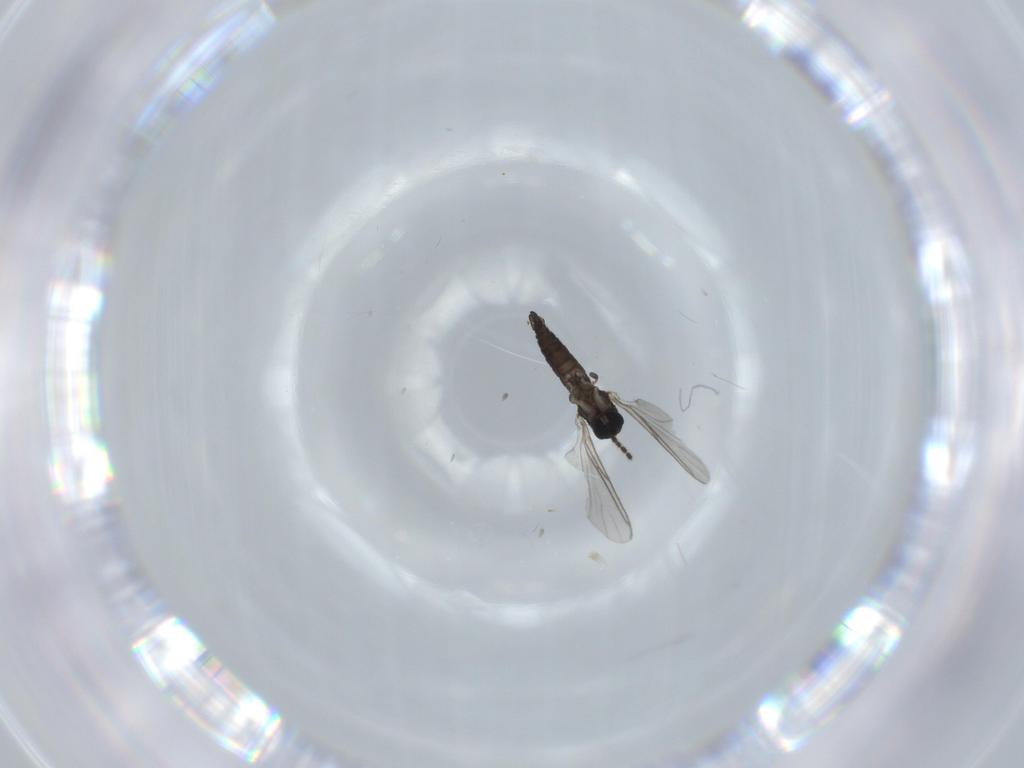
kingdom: Animalia
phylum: Arthropoda
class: Insecta
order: Diptera
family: Sciaridae
